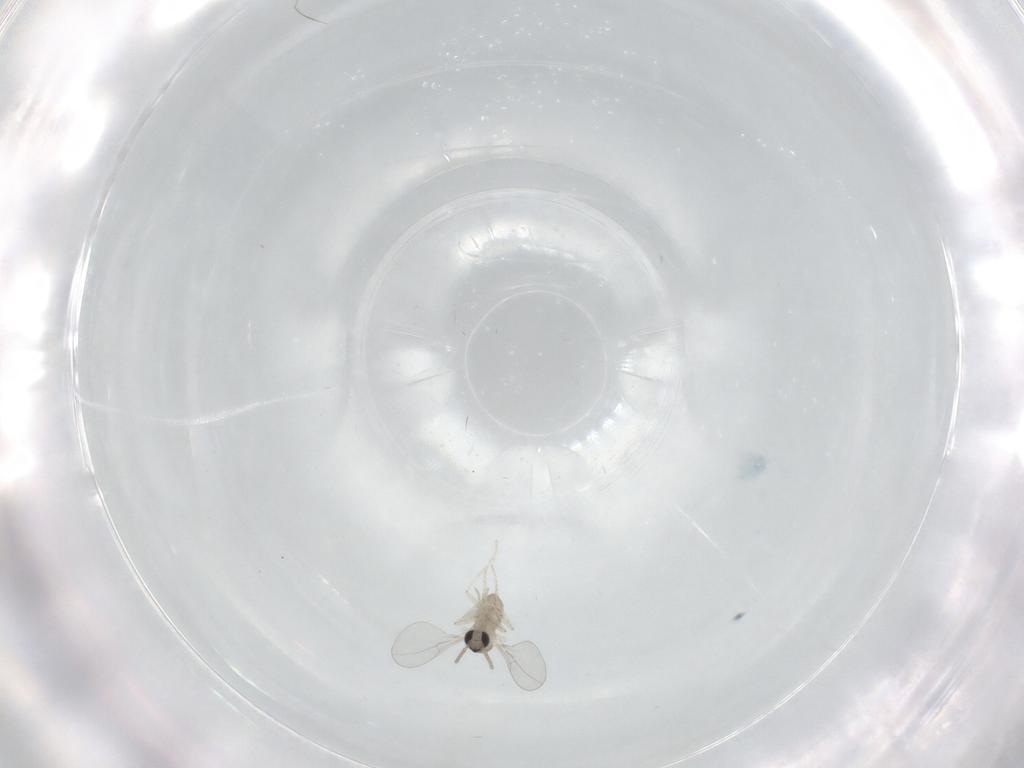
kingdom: Animalia
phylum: Arthropoda
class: Insecta
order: Diptera
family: Cecidomyiidae
